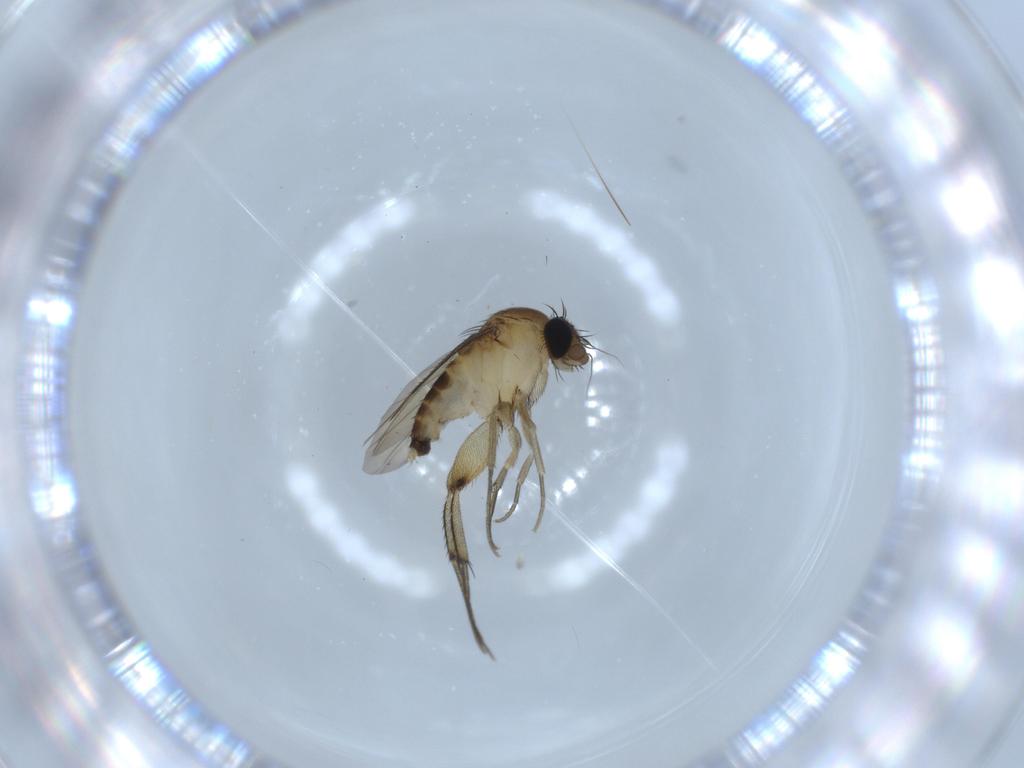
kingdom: Animalia
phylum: Arthropoda
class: Insecta
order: Diptera
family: Phoridae
